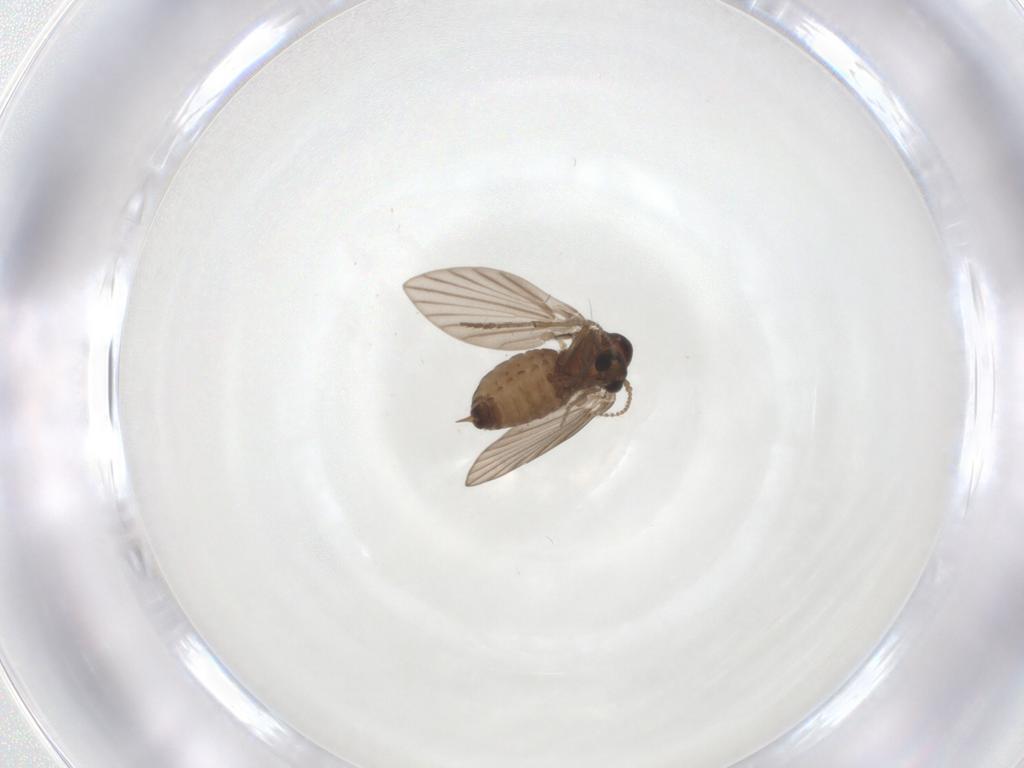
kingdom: Animalia
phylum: Arthropoda
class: Insecta
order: Diptera
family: Psychodidae
